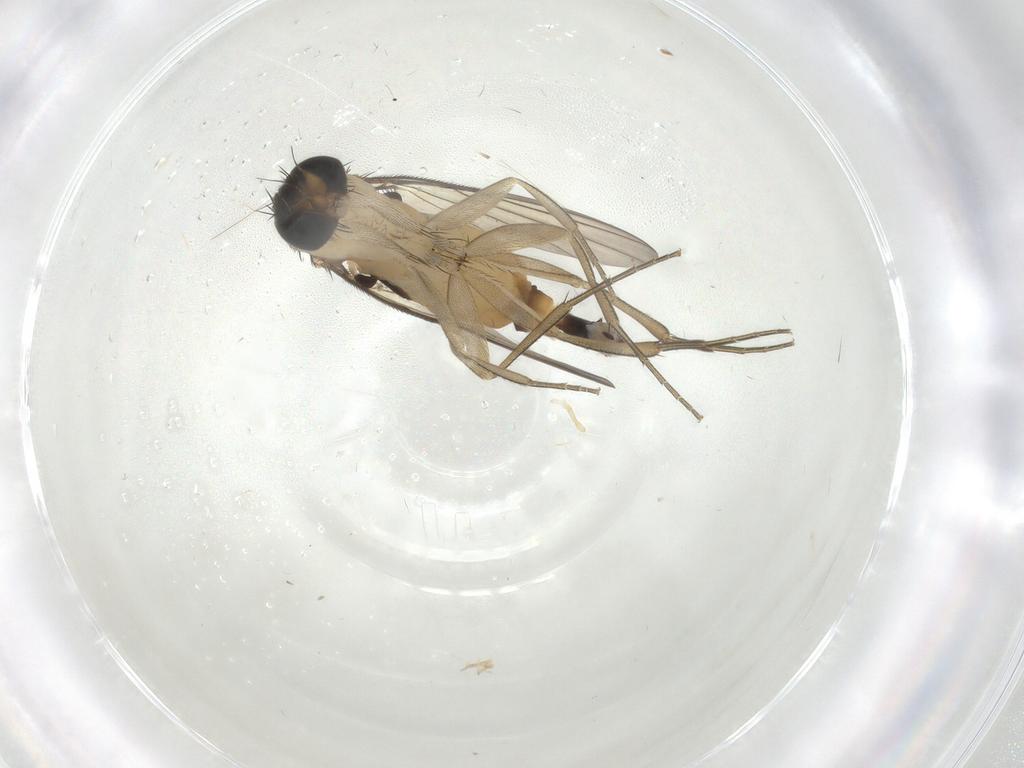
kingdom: Animalia
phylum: Arthropoda
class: Insecta
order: Diptera
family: Phoridae
